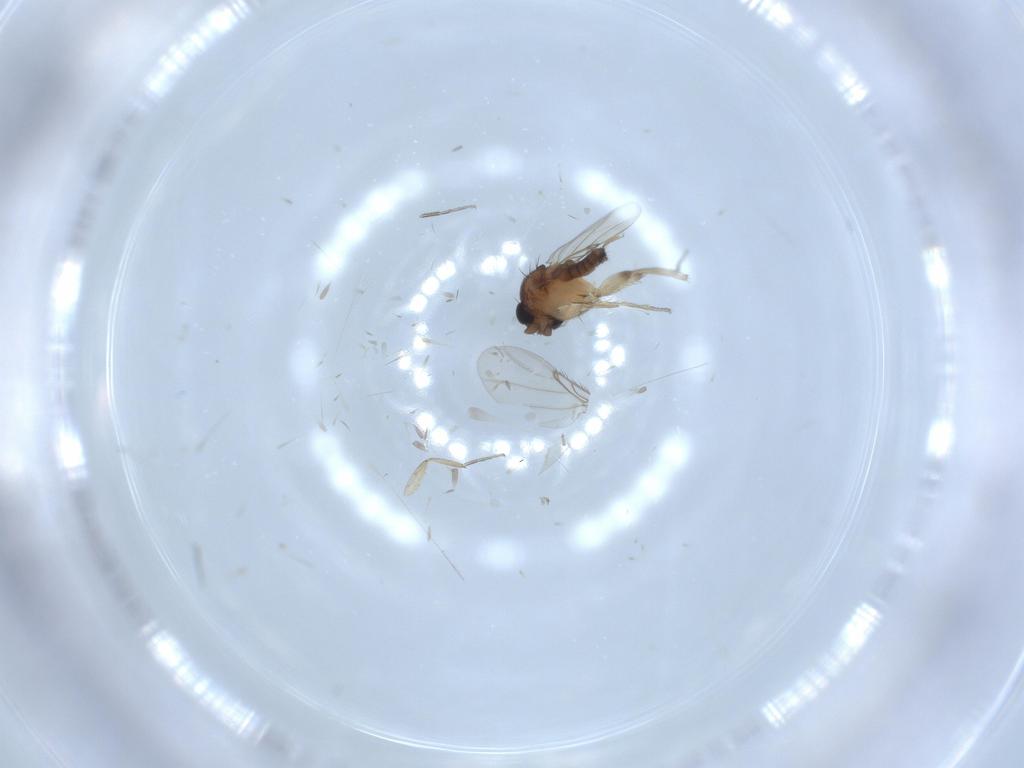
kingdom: Animalia
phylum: Arthropoda
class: Insecta
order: Diptera
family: Phoridae
